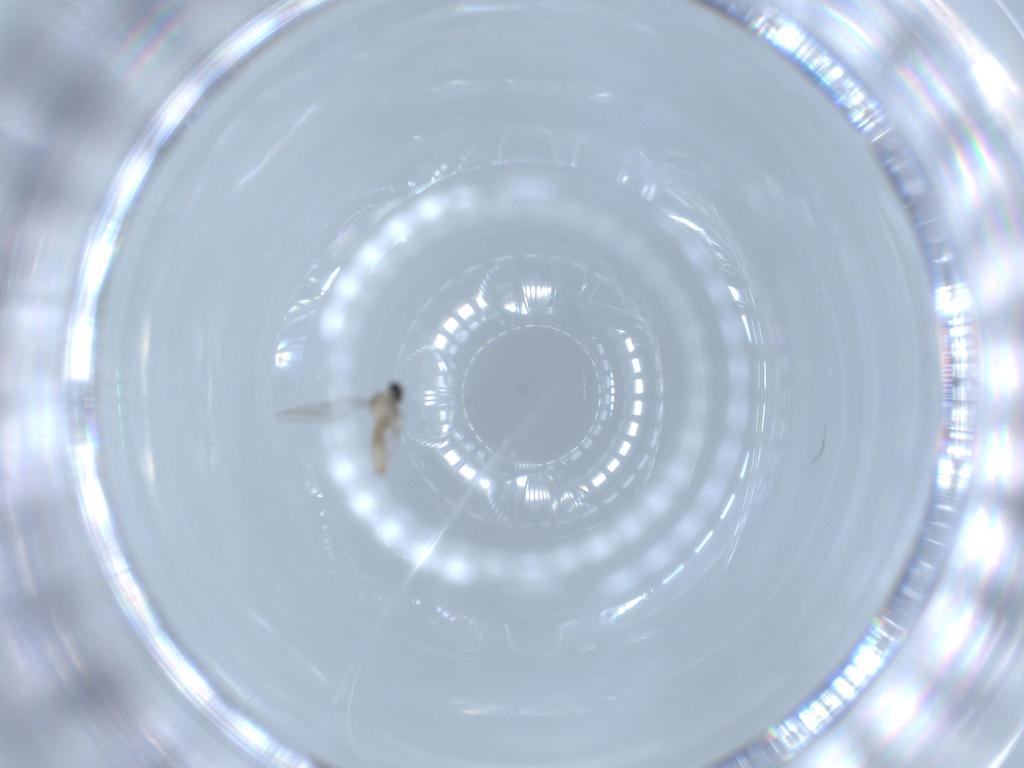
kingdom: Animalia
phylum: Arthropoda
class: Insecta
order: Diptera
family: Cecidomyiidae
